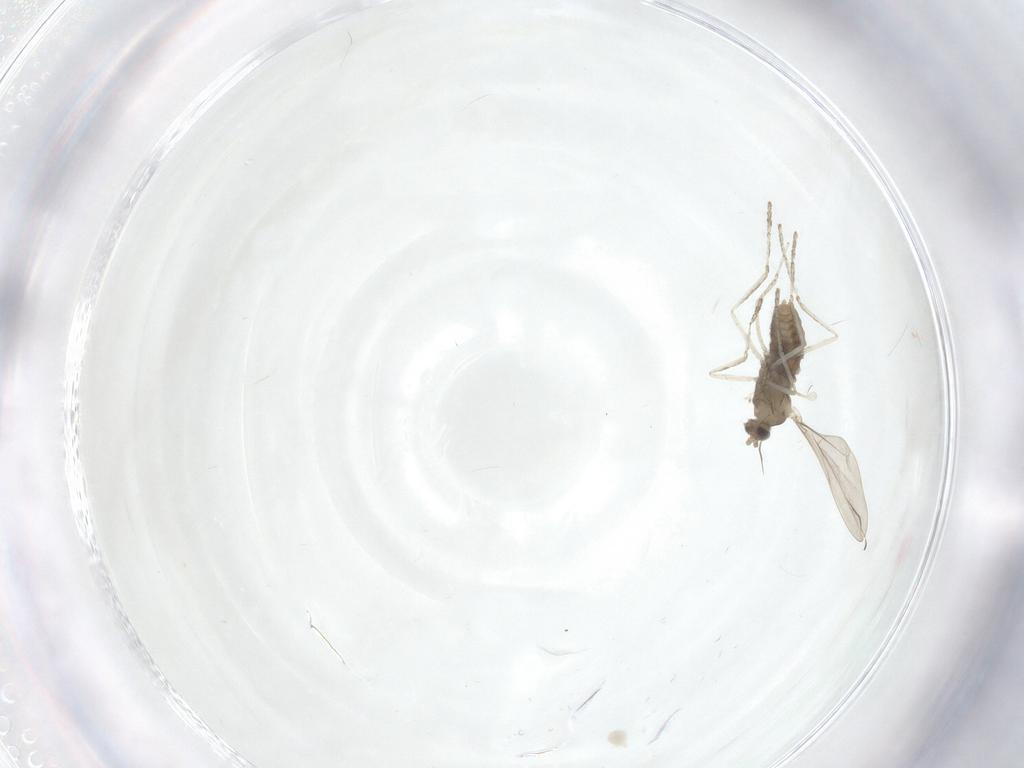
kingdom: Animalia
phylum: Arthropoda
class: Insecta
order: Diptera
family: Cecidomyiidae
